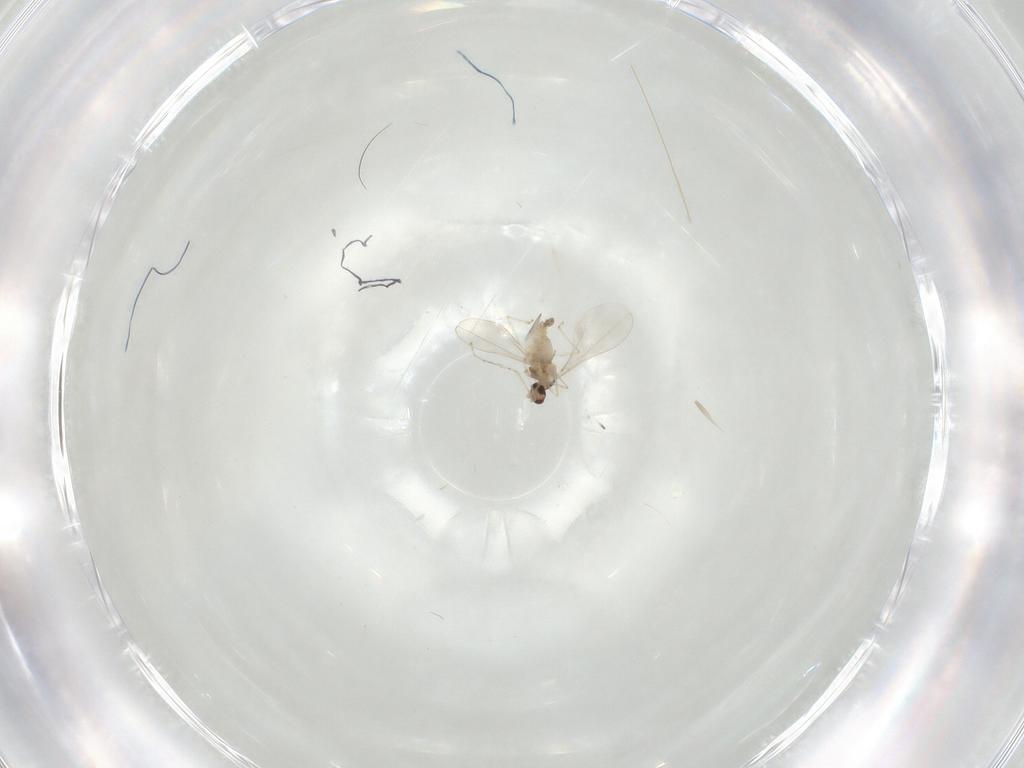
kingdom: Animalia
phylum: Arthropoda
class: Insecta
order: Diptera
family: Cecidomyiidae
